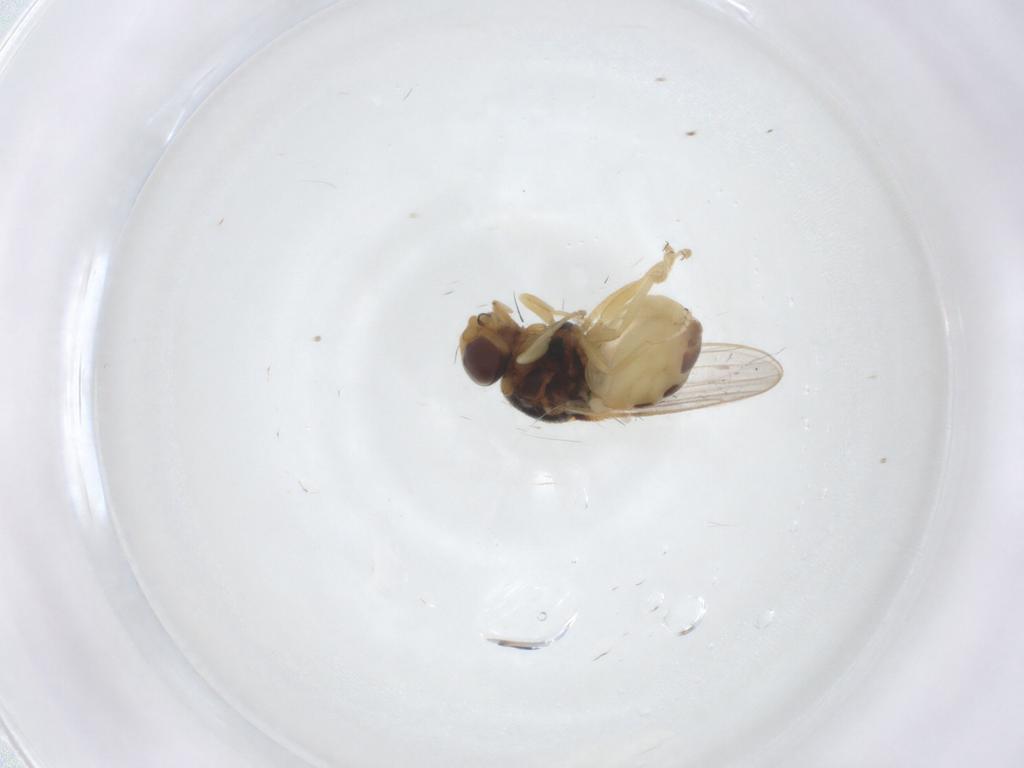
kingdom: Animalia
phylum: Arthropoda
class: Insecta
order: Diptera
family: Chloropidae
